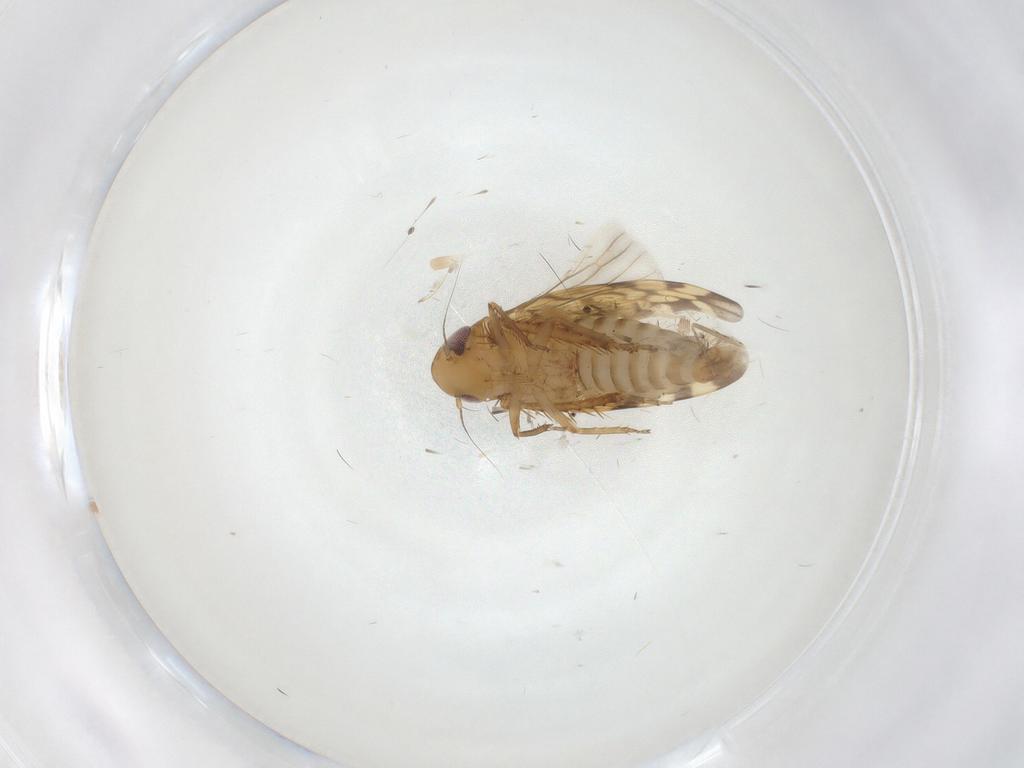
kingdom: Animalia
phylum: Arthropoda
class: Insecta
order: Hemiptera
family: Cicadellidae
